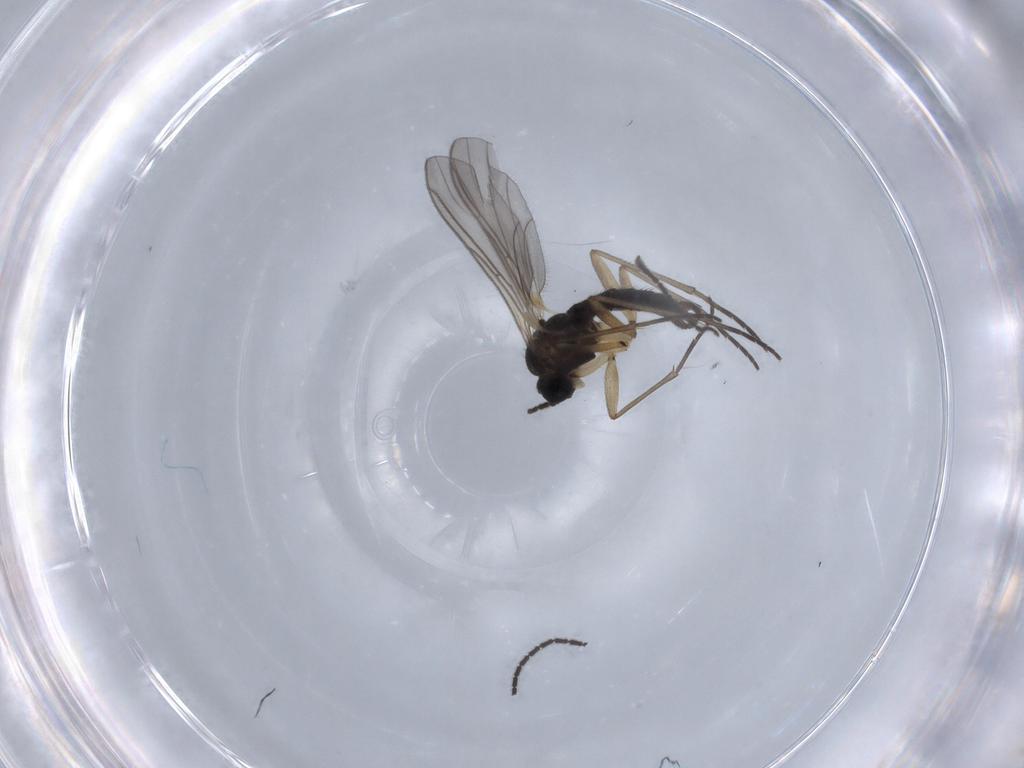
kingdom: Animalia
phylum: Arthropoda
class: Insecta
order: Diptera
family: Sciaridae
